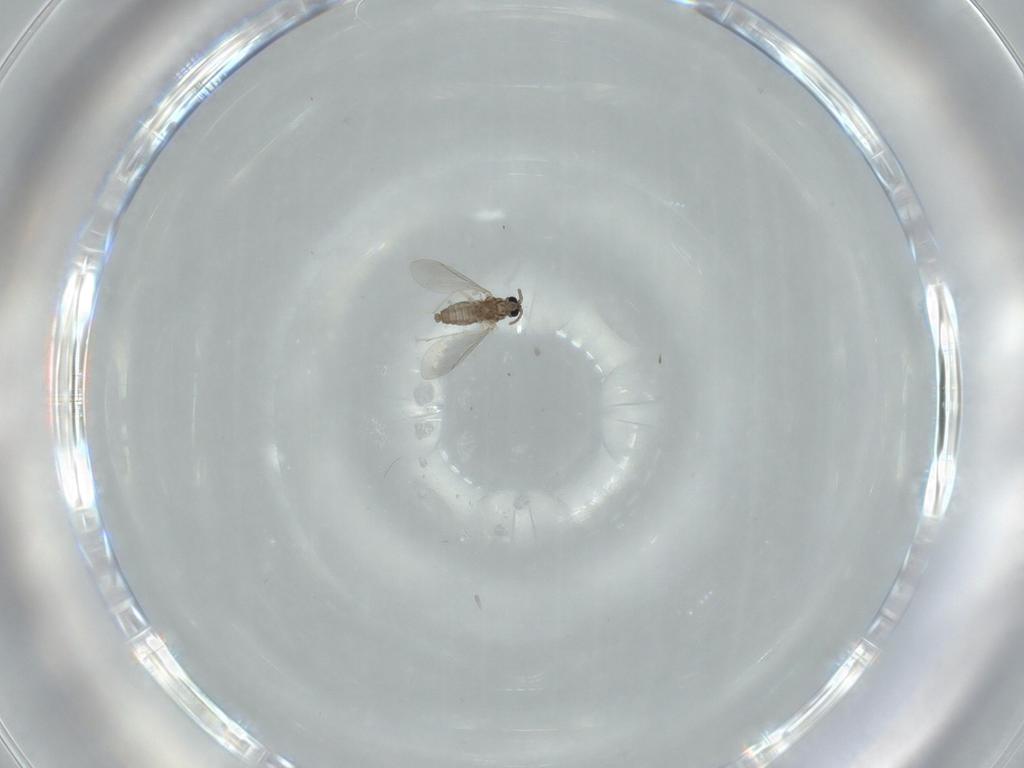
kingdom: Animalia
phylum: Arthropoda
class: Insecta
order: Diptera
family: Cecidomyiidae
